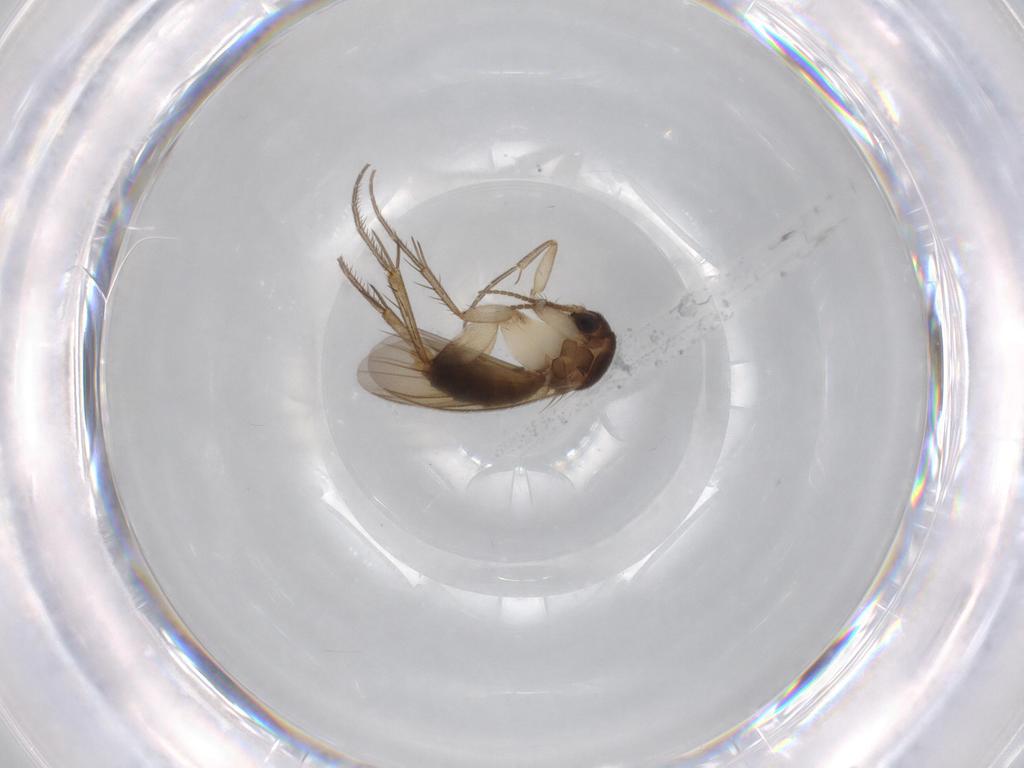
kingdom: Animalia
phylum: Arthropoda
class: Insecta
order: Diptera
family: Sciaridae
